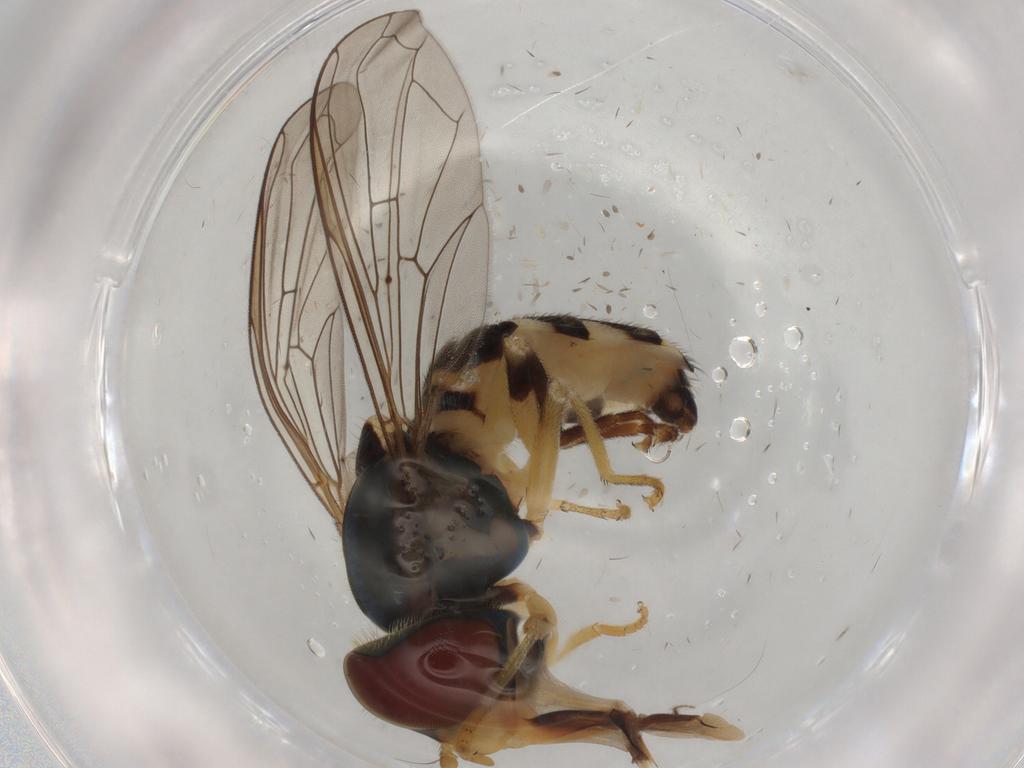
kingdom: Animalia
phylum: Arthropoda
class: Insecta
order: Diptera
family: Syrphidae
